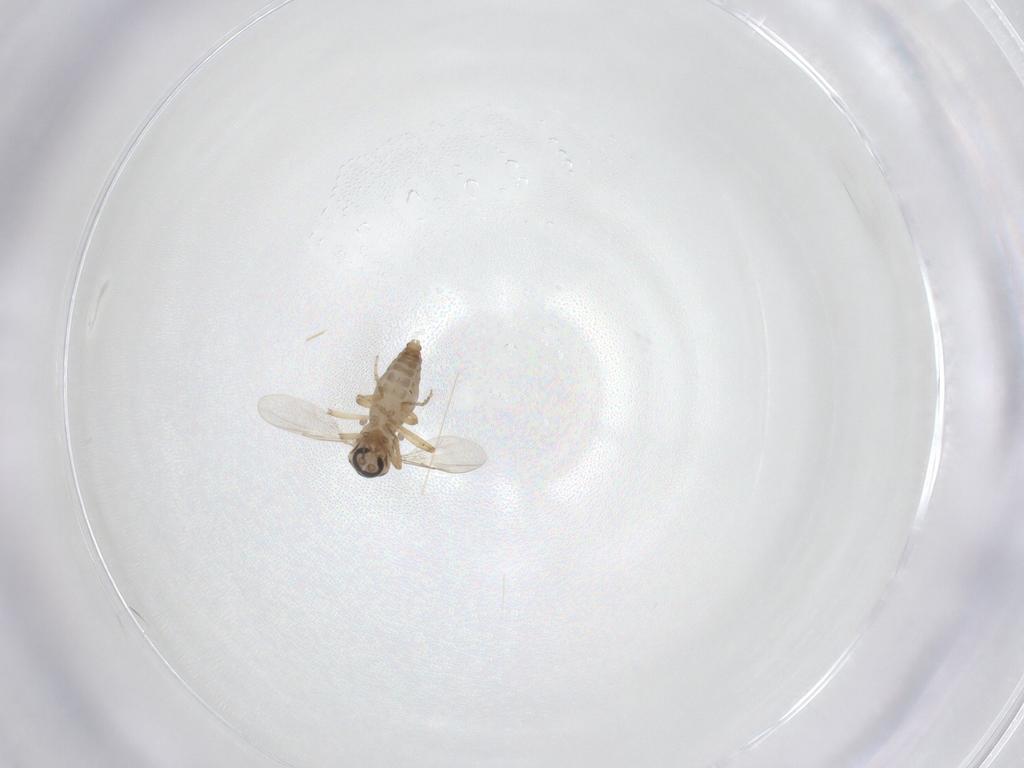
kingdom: Animalia
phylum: Arthropoda
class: Insecta
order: Diptera
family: Ceratopogonidae
